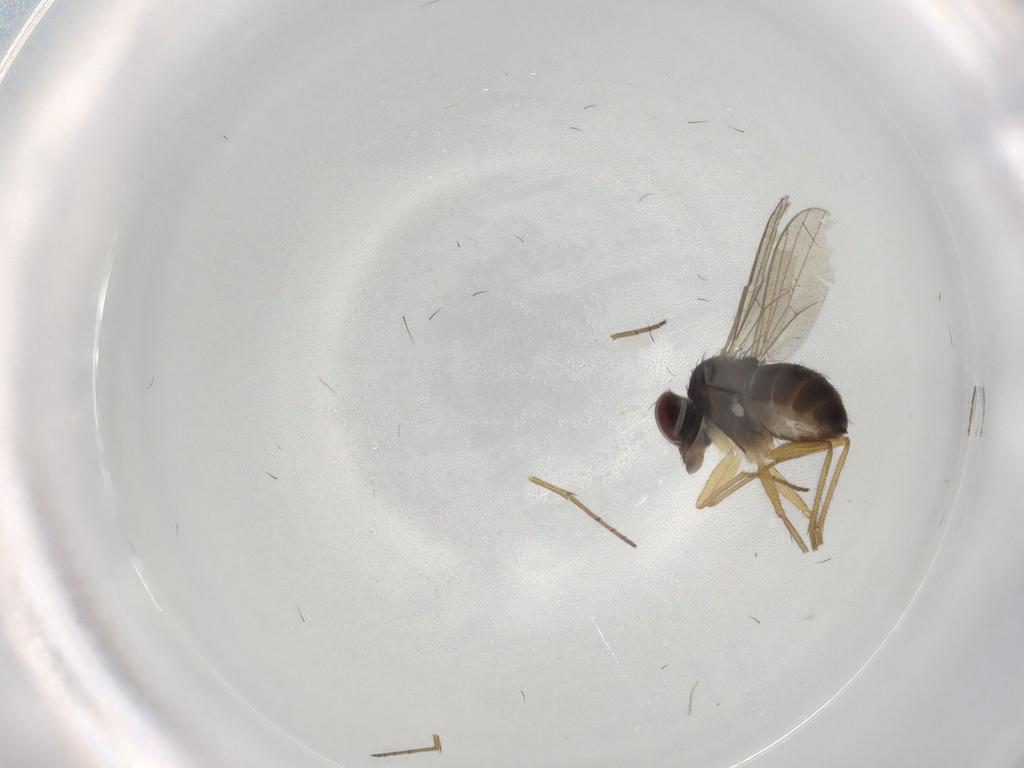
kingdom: Animalia
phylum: Arthropoda
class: Insecta
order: Diptera
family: Dolichopodidae
